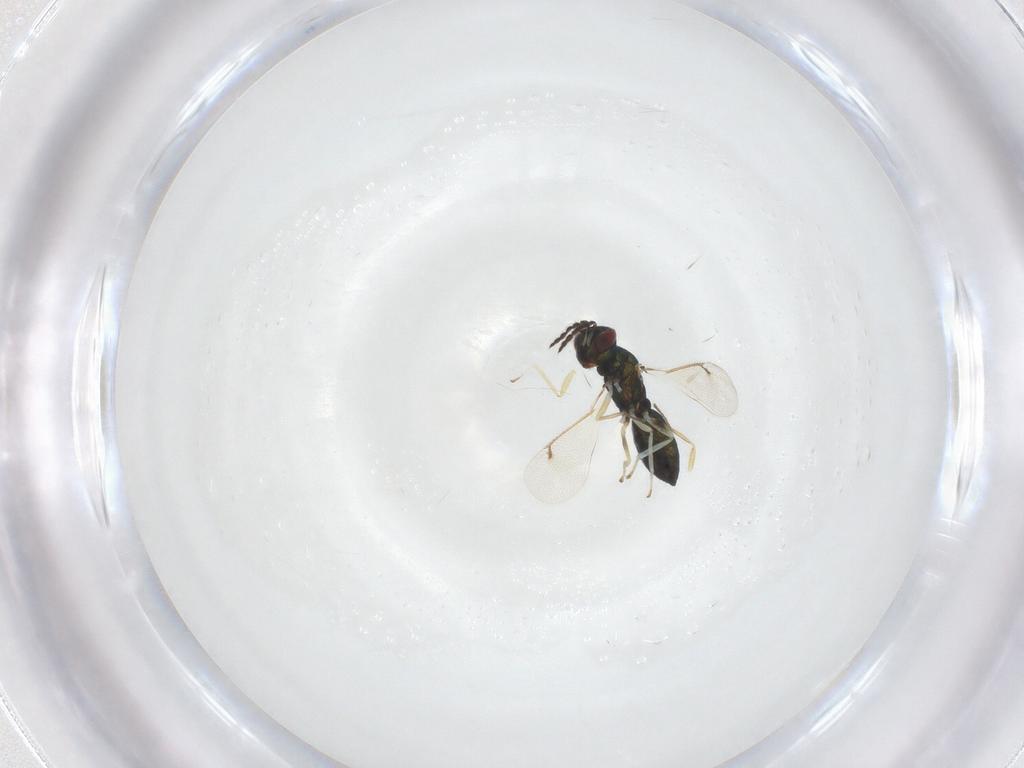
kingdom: Animalia
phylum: Arthropoda
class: Insecta
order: Hymenoptera
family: Eulophidae
